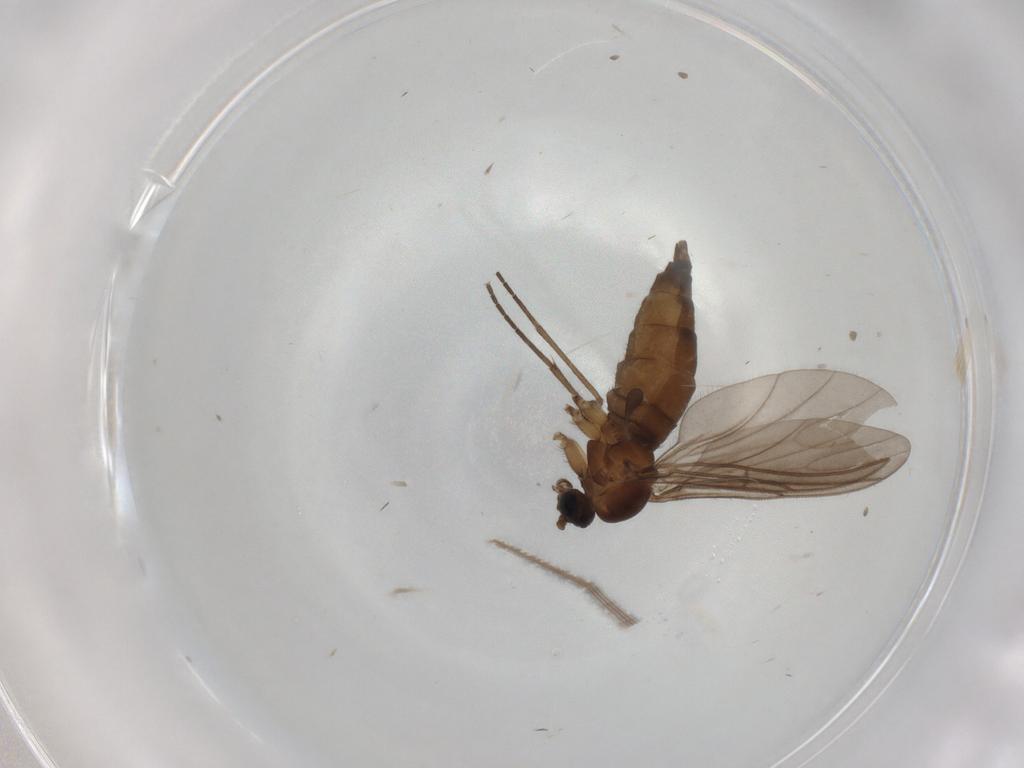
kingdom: Animalia
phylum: Arthropoda
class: Insecta
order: Diptera
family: Sciaridae
